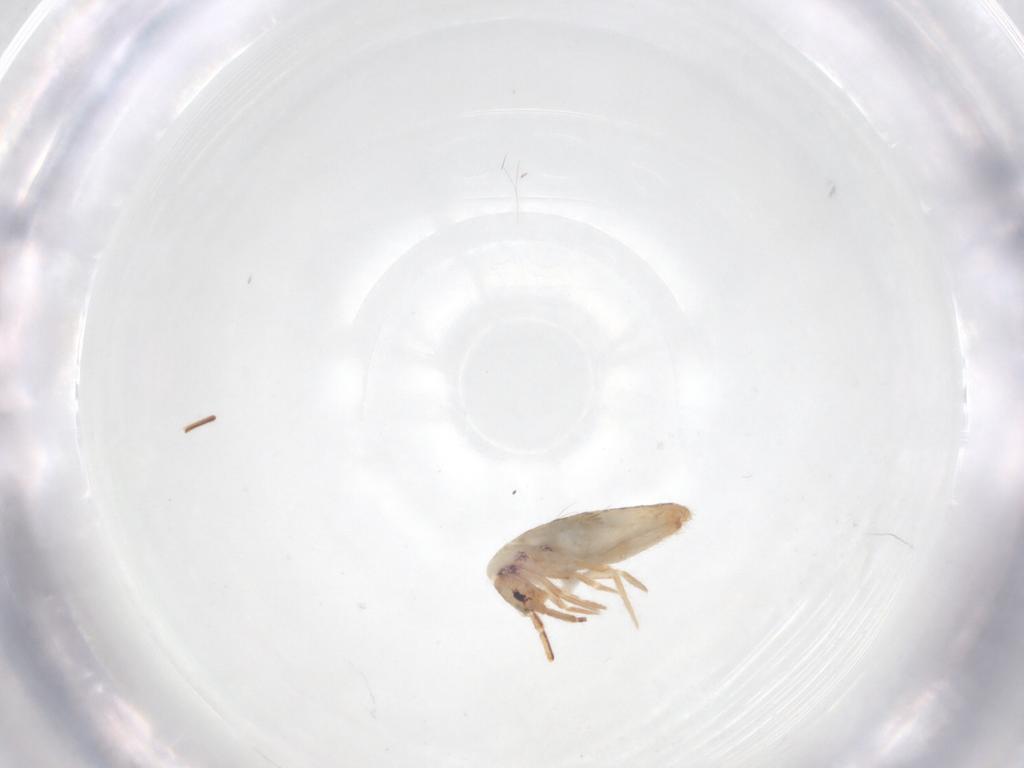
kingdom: Animalia
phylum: Arthropoda
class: Collembola
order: Entomobryomorpha
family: Entomobryidae
